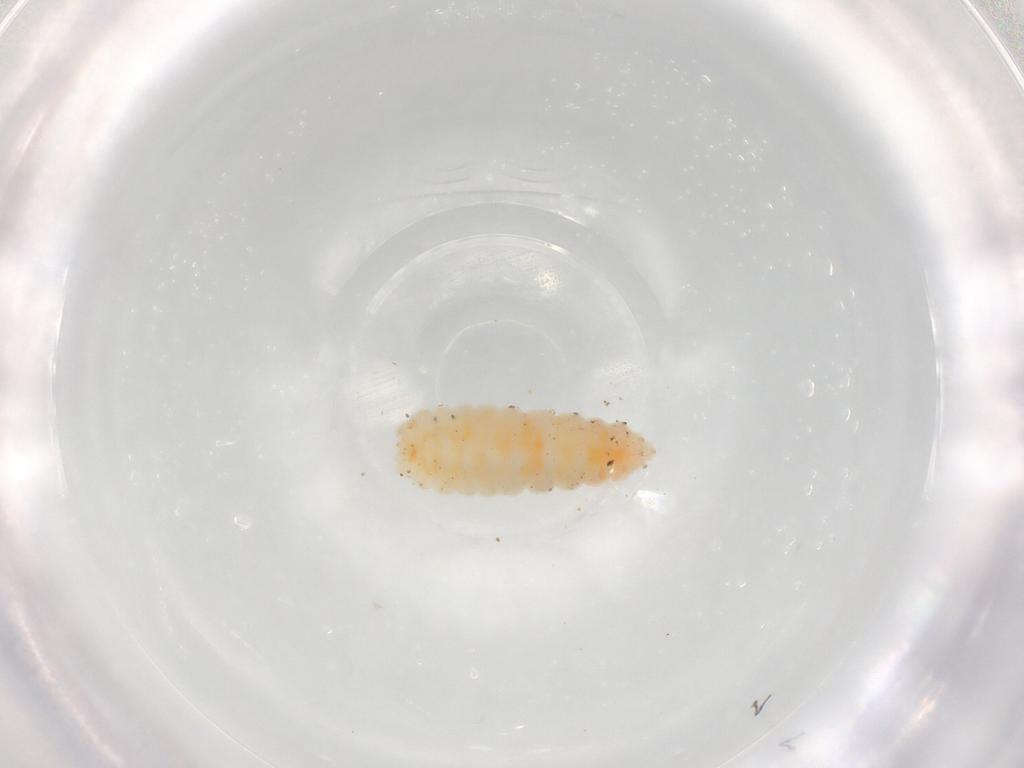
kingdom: Animalia
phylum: Arthropoda
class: Insecta
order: Diptera
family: Cecidomyiidae
